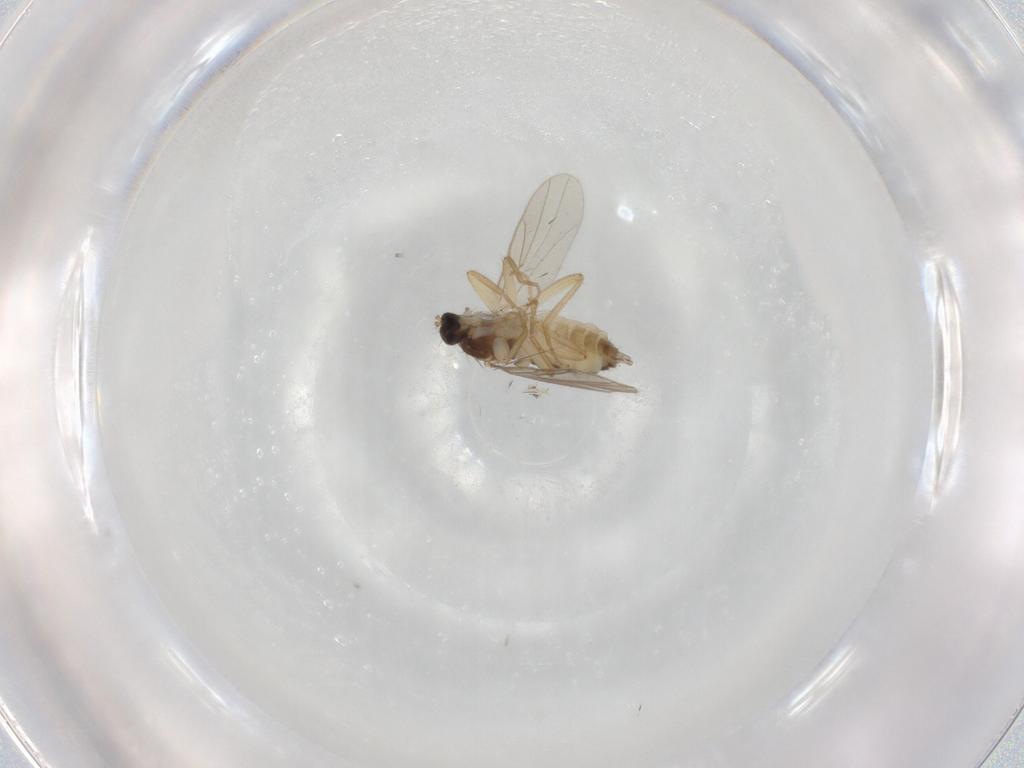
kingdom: Animalia
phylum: Arthropoda
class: Insecta
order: Diptera
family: Hybotidae
